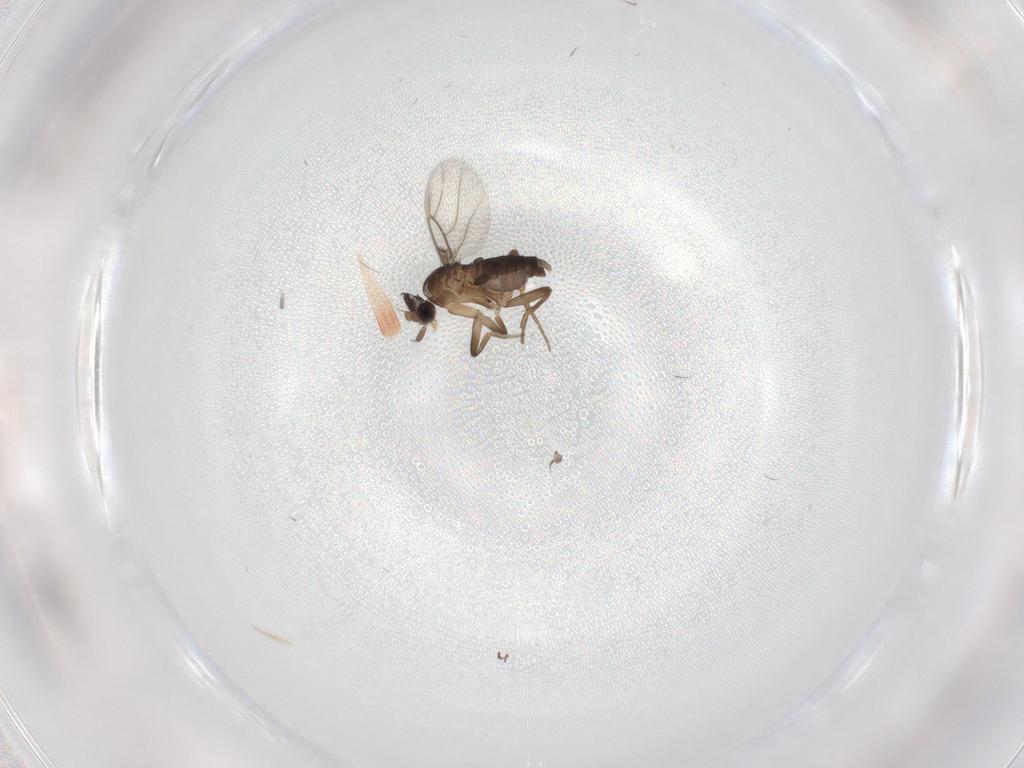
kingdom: Animalia
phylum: Arthropoda
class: Insecta
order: Diptera
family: Phoridae
